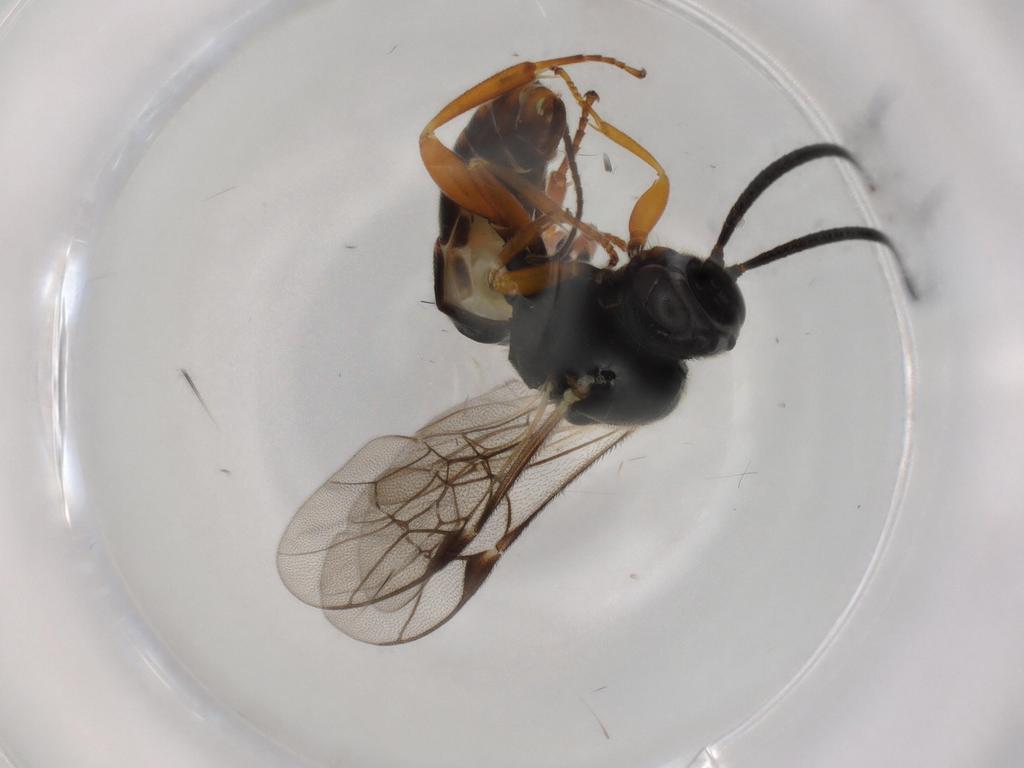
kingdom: Animalia
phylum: Arthropoda
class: Insecta
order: Hymenoptera
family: Ichneumonidae
